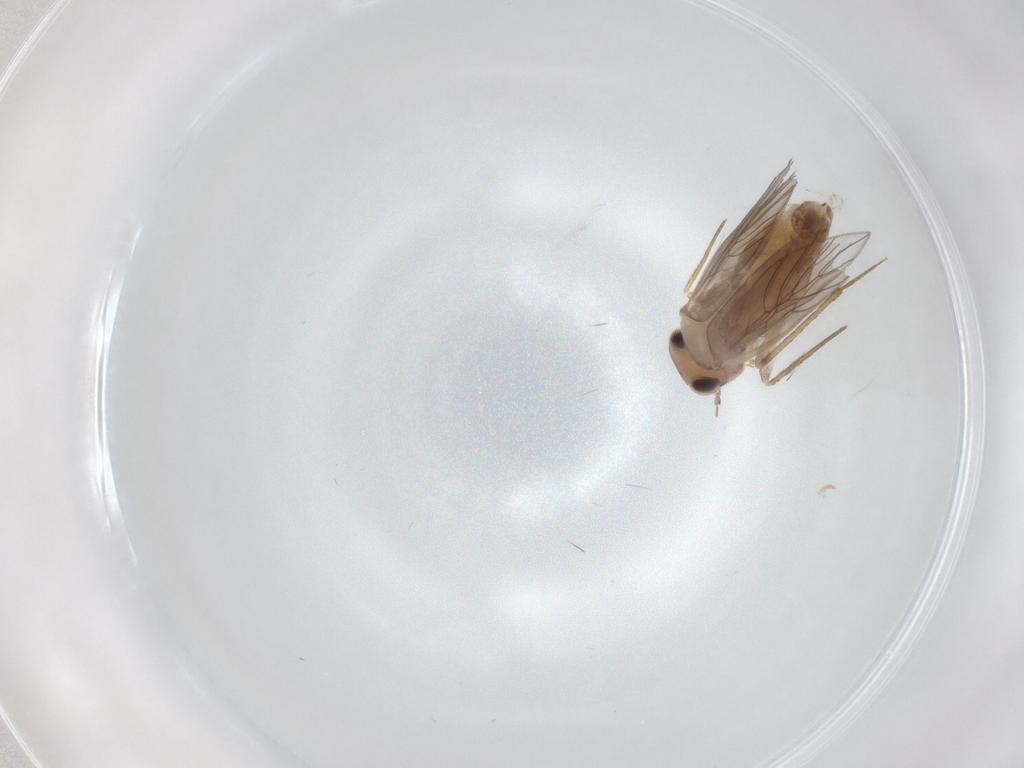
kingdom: Animalia
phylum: Arthropoda
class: Insecta
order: Psocodea
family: Lepidopsocidae
